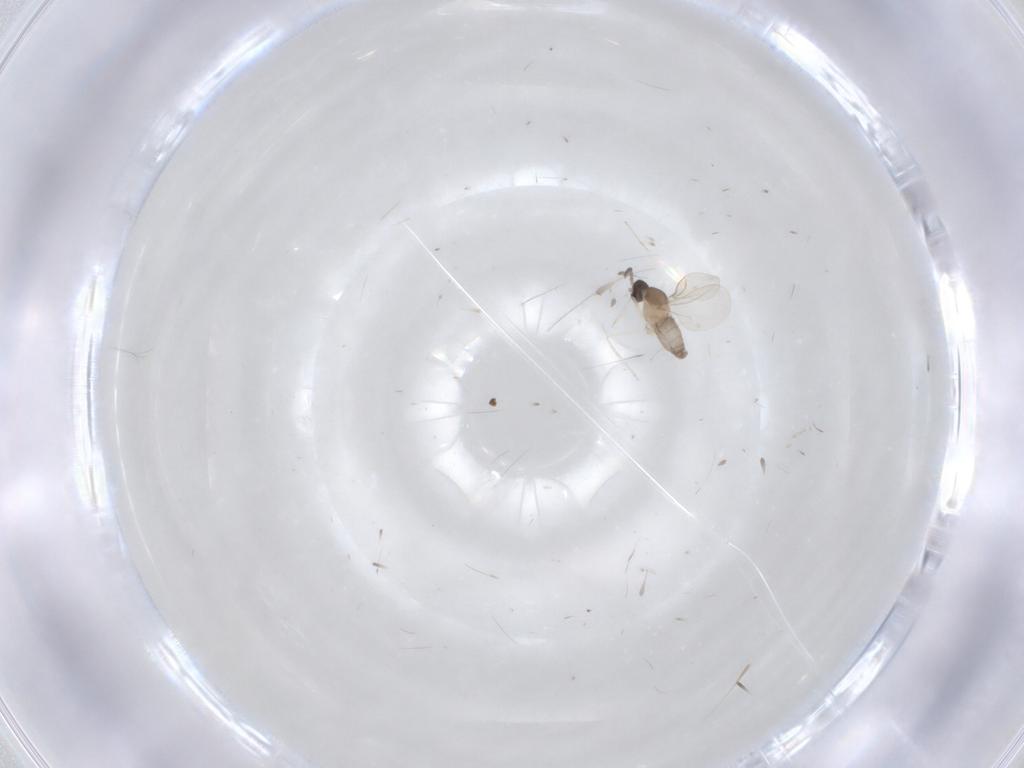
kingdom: Animalia
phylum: Arthropoda
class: Insecta
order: Diptera
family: Cecidomyiidae
